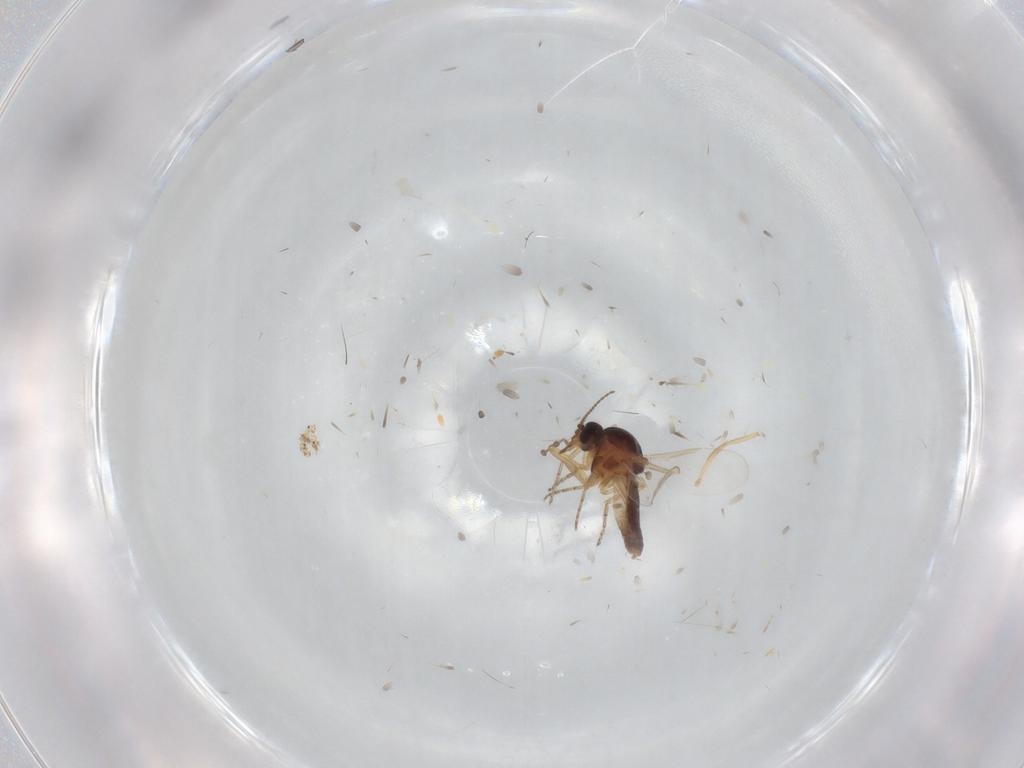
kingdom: Animalia
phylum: Arthropoda
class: Insecta
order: Diptera
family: Ceratopogonidae
